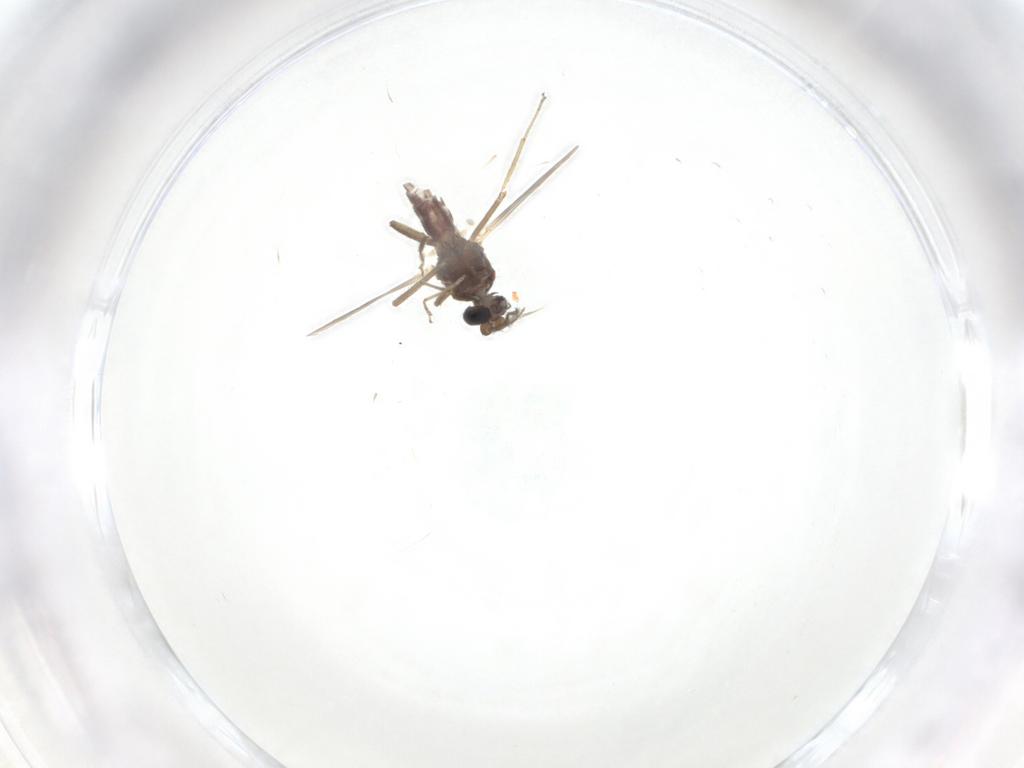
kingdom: Animalia
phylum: Arthropoda
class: Insecta
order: Diptera
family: Ceratopogonidae
